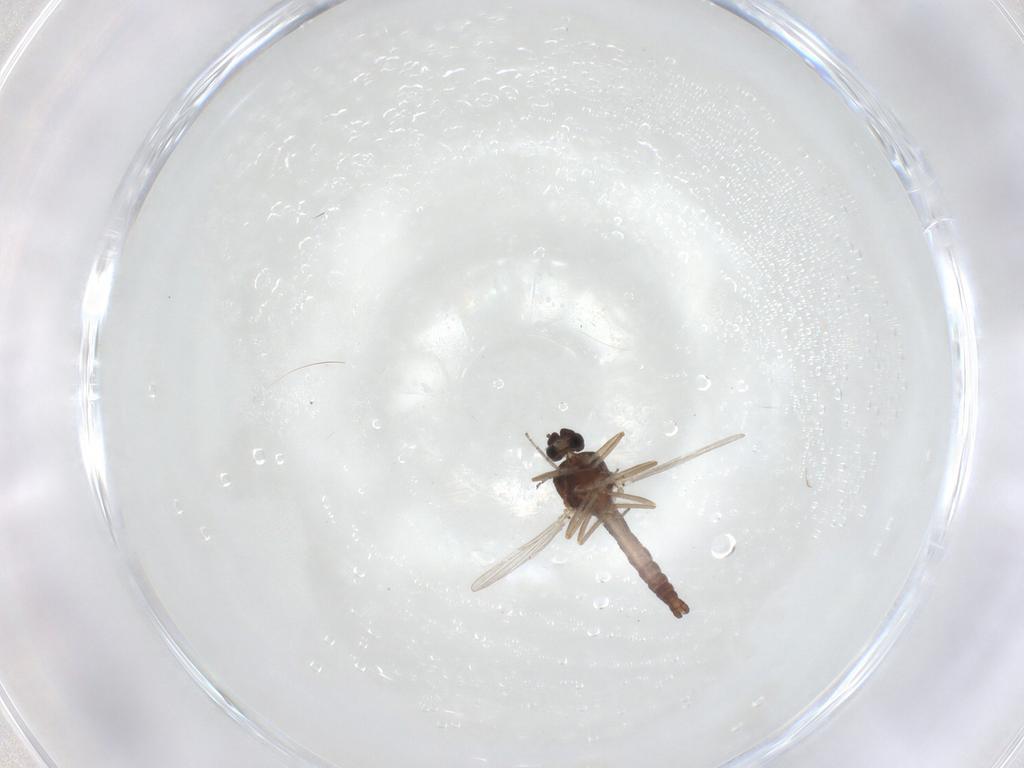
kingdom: Animalia
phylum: Arthropoda
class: Insecta
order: Diptera
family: Ceratopogonidae
